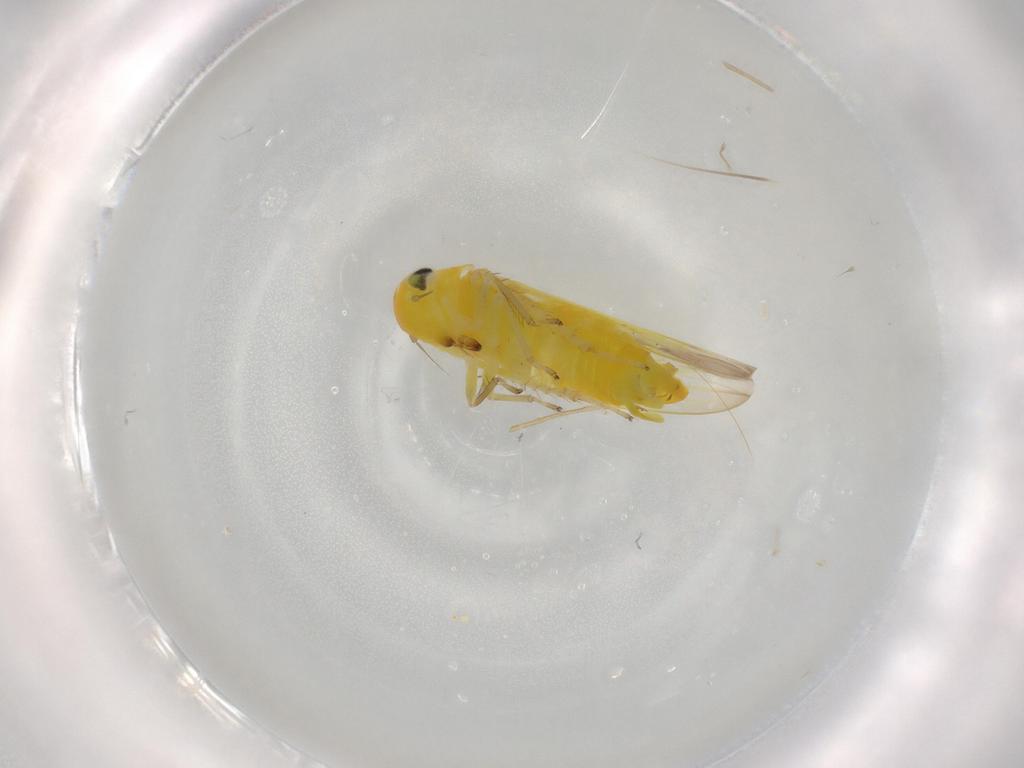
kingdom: Animalia
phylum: Arthropoda
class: Insecta
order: Hemiptera
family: Cicadellidae
